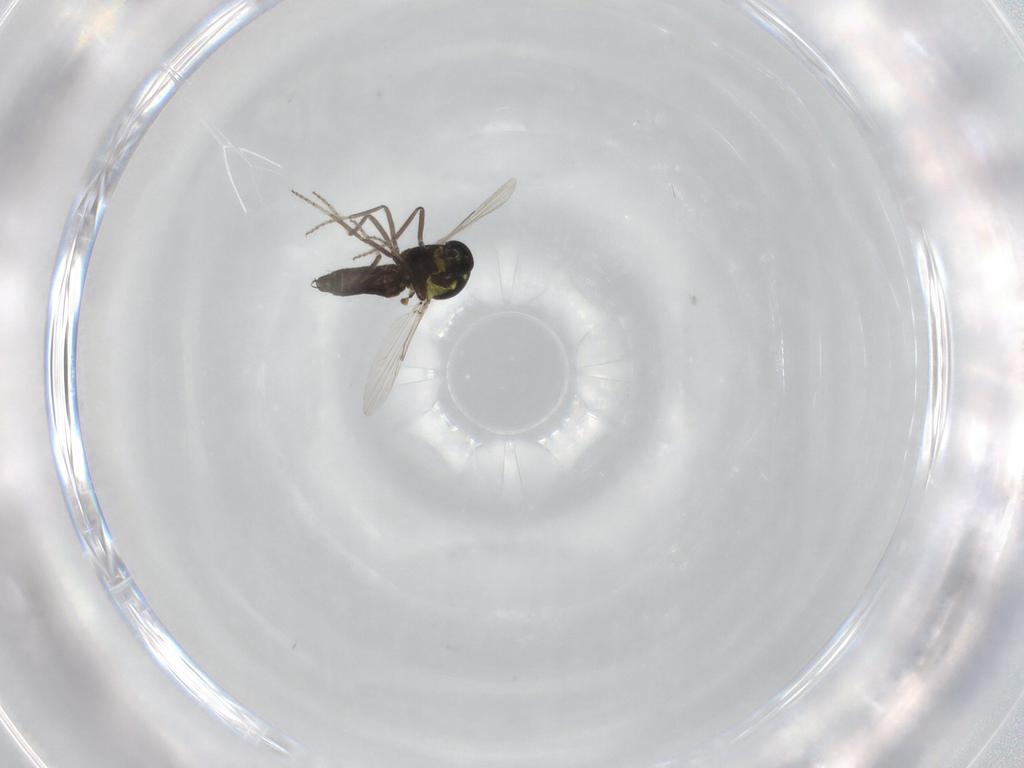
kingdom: Animalia
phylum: Arthropoda
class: Insecta
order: Diptera
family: Ceratopogonidae
